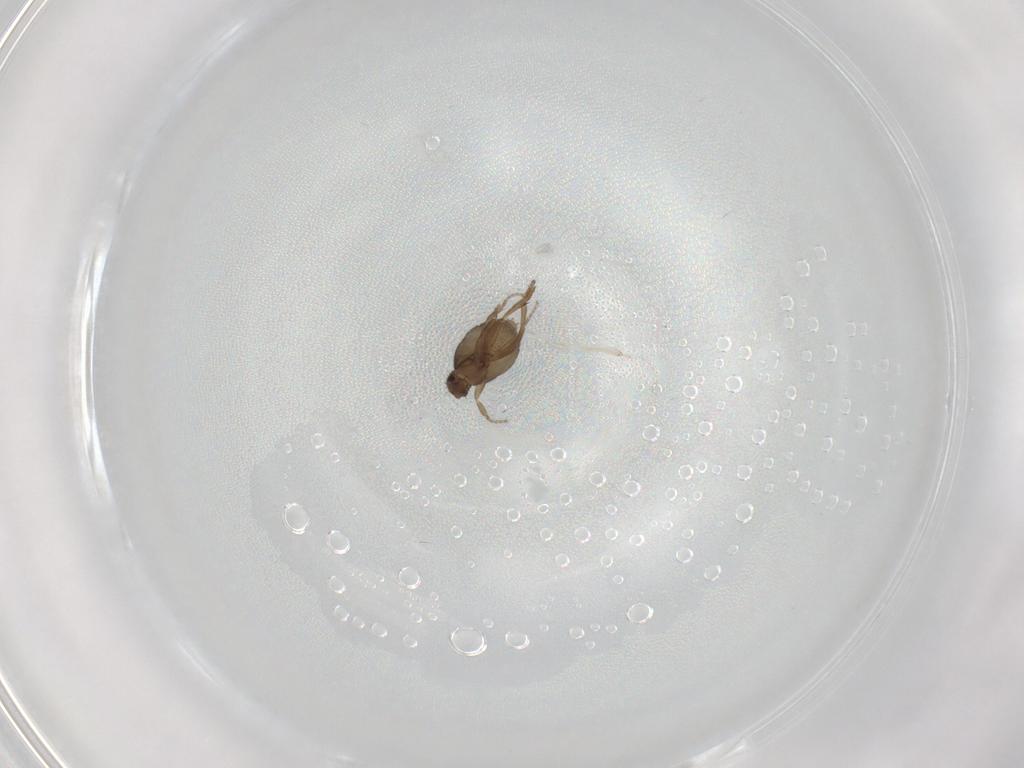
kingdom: Animalia
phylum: Arthropoda
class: Insecta
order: Diptera
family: Phoridae
